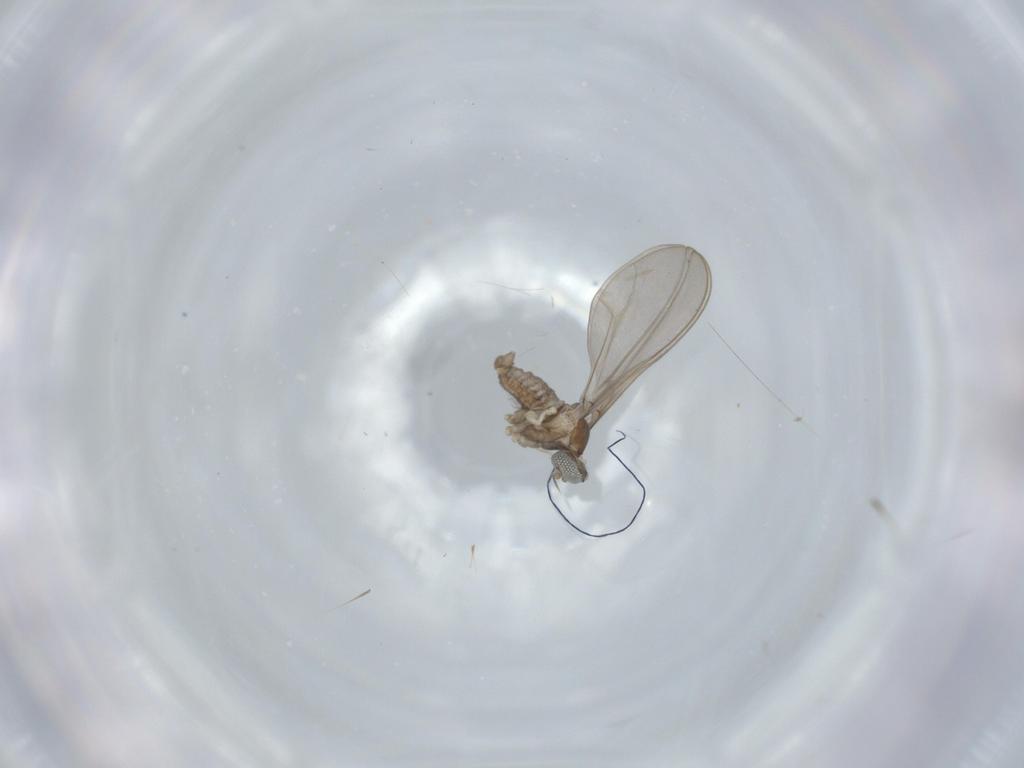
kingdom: Animalia
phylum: Arthropoda
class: Insecta
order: Diptera
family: Cecidomyiidae
